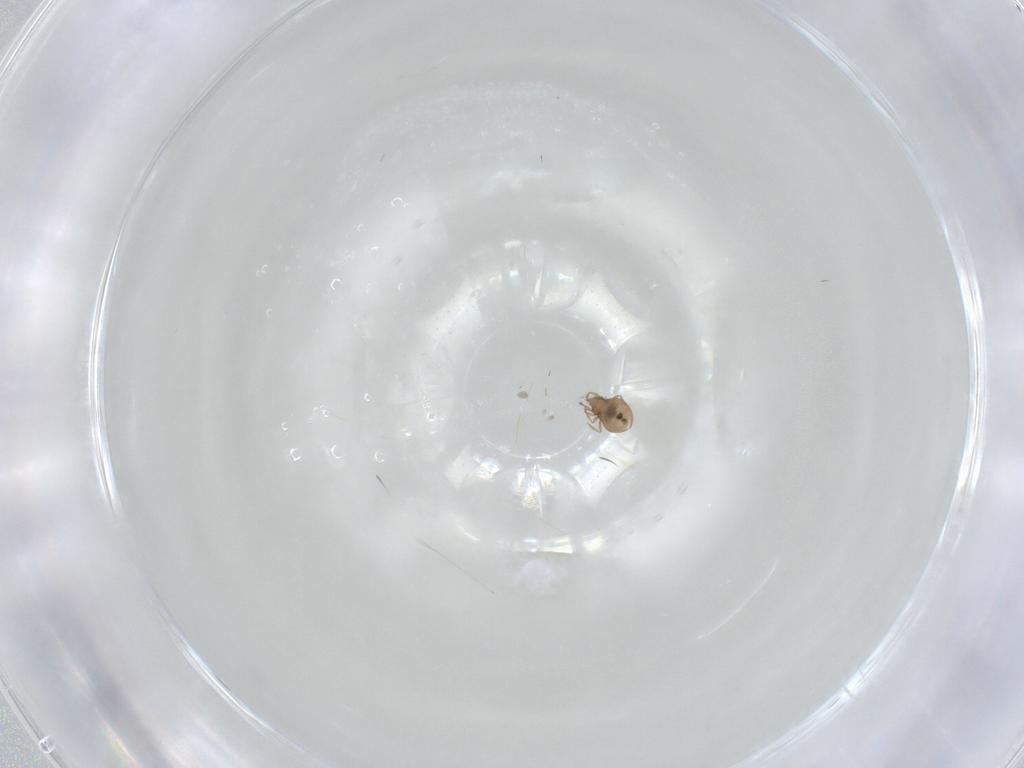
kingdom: Animalia
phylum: Arthropoda
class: Arachnida
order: Sarcoptiformes
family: Scheloribatidae
